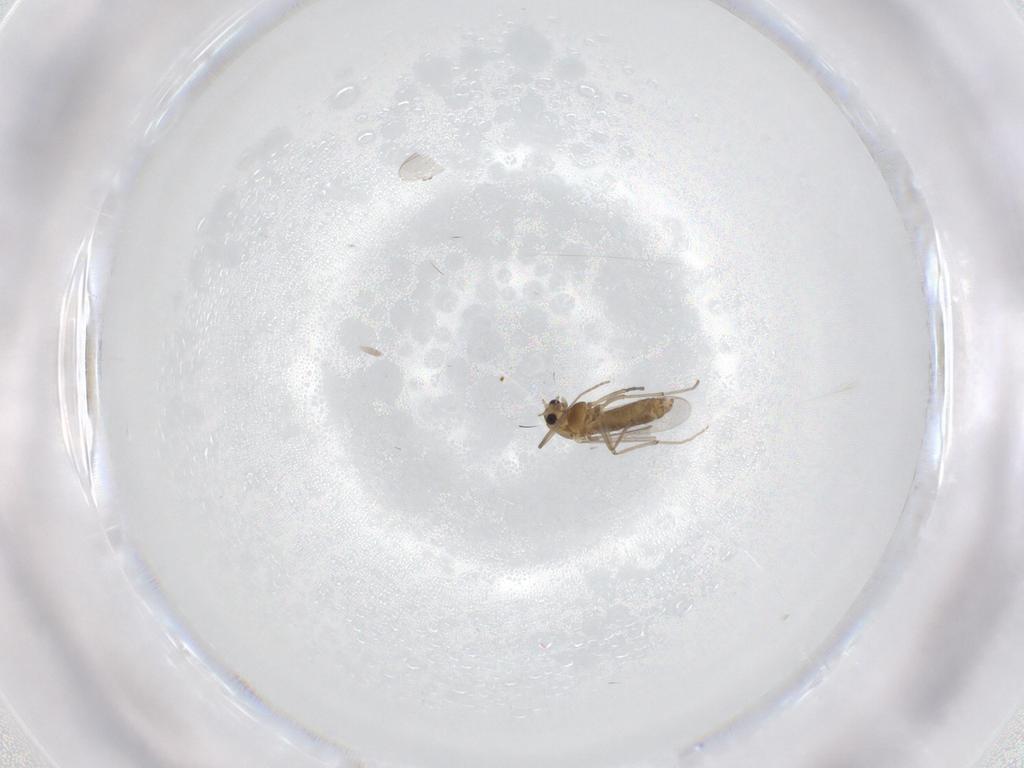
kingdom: Animalia
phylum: Arthropoda
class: Insecta
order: Diptera
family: Chironomidae
